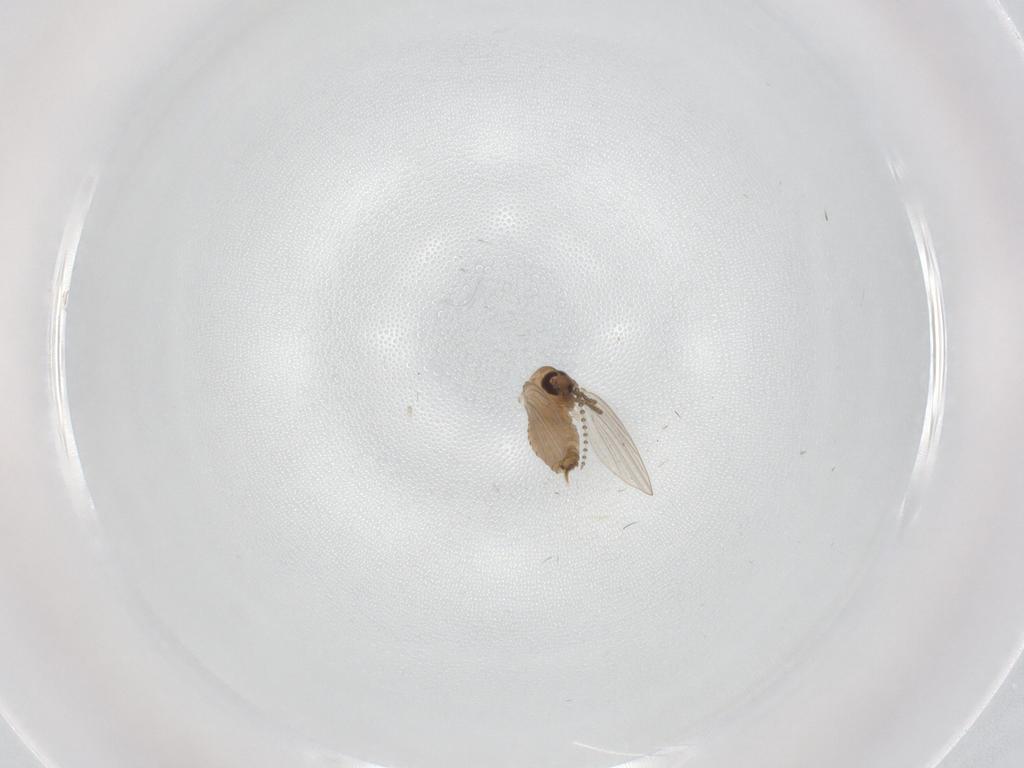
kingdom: Animalia
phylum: Arthropoda
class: Insecta
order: Diptera
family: Psychodidae
